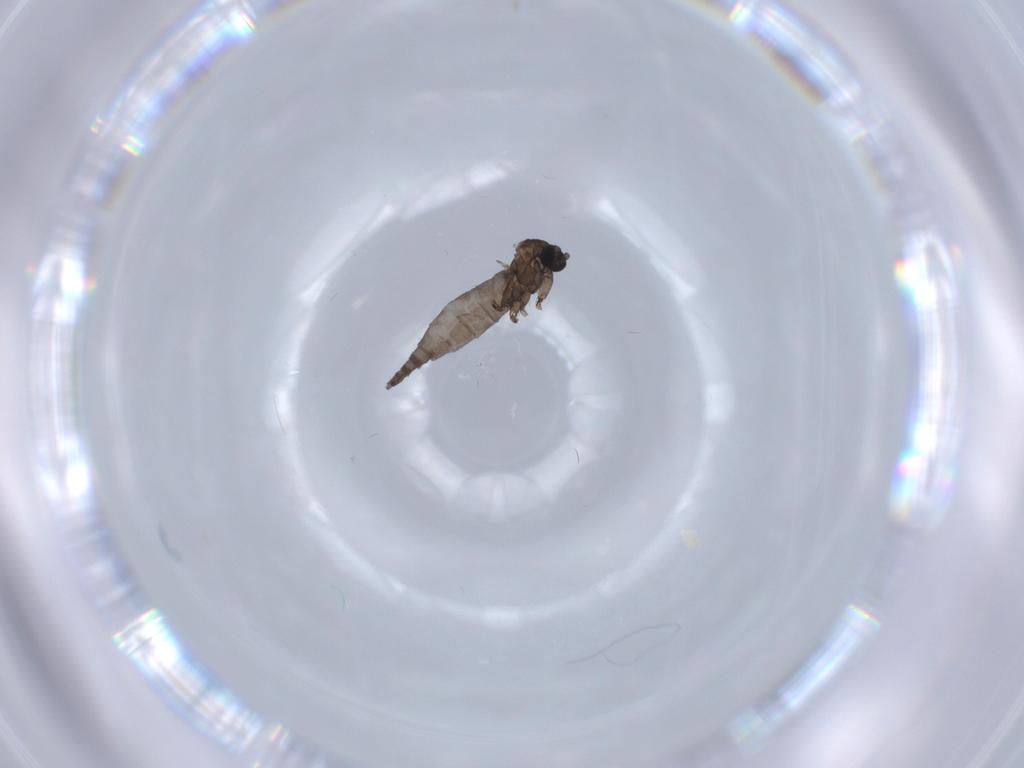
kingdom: Animalia
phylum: Arthropoda
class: Insecta
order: Diptera
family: Sciaridae
